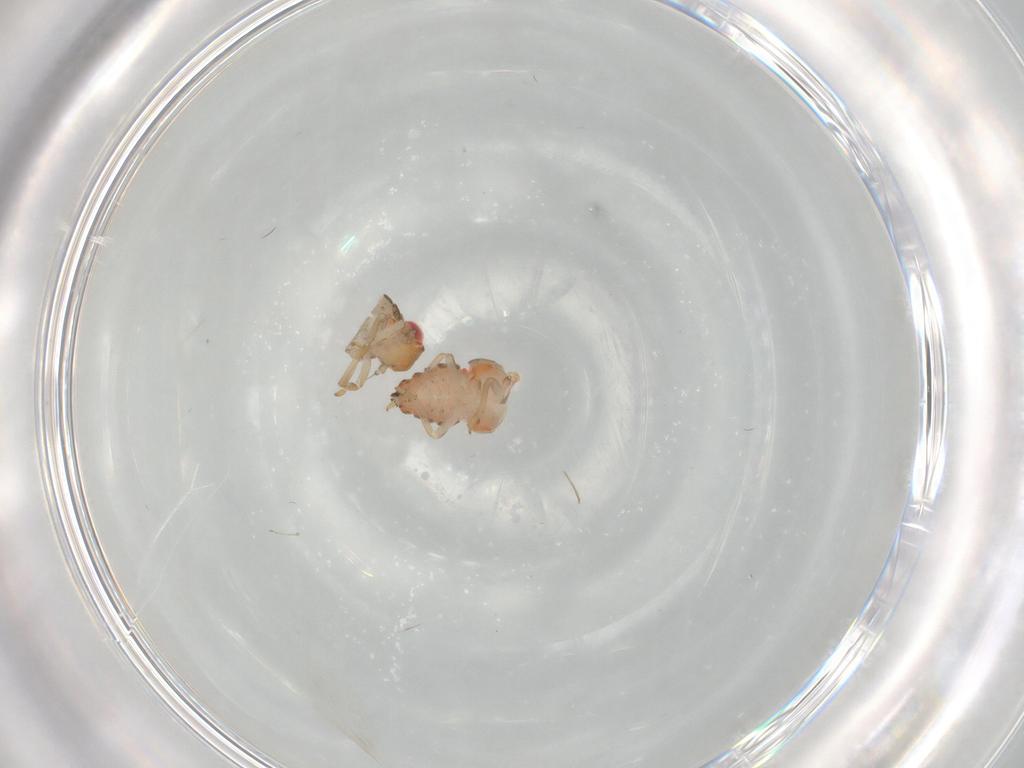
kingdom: Animalia
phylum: Arthropoda
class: Insecta
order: Hemiptera
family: Issidae
